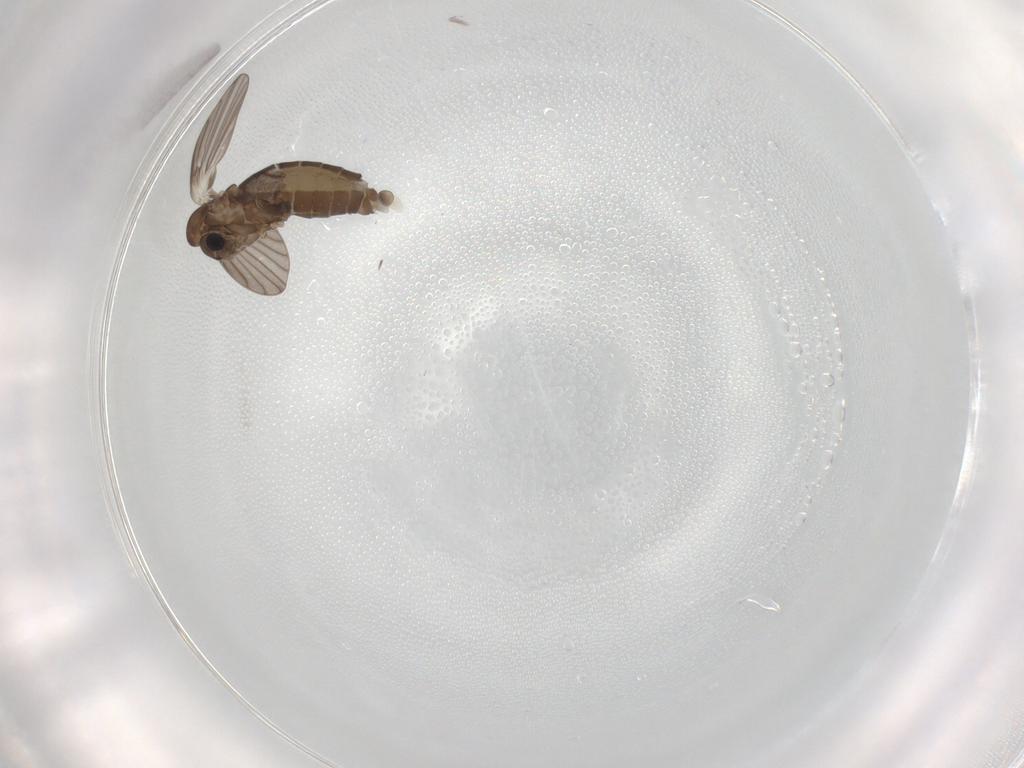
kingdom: Animalia
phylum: Arthropoda
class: Insecta
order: Diptera
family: Psychodidae
